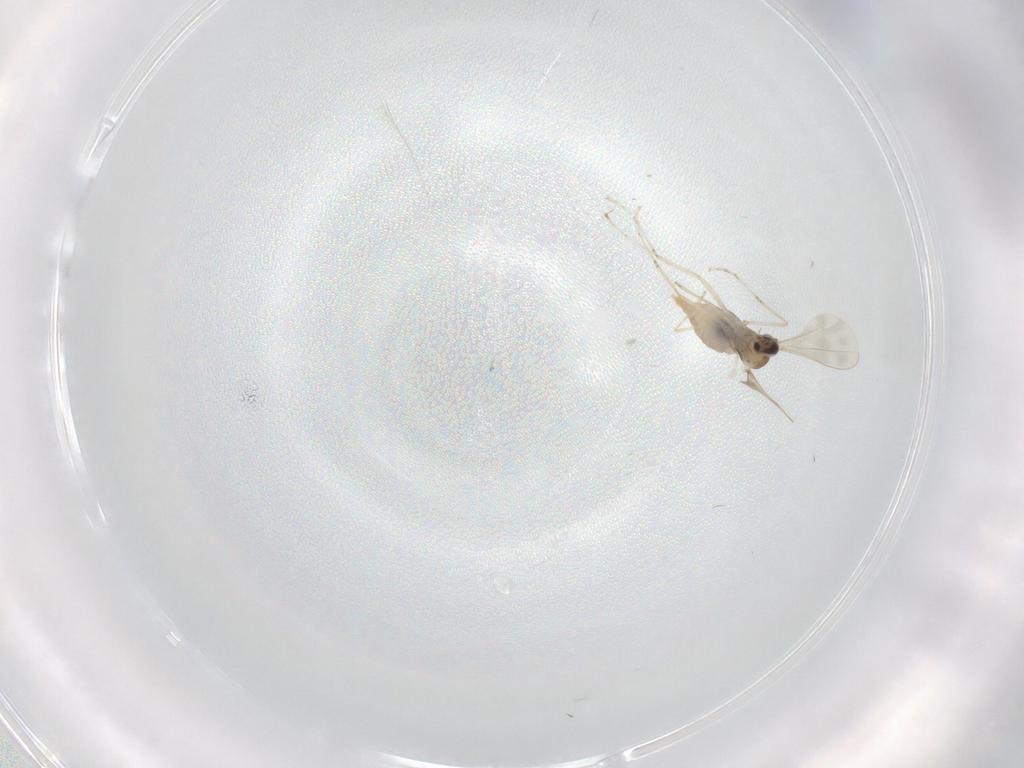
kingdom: Animalia
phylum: Arthropoda
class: Insecta
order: Diptera
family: Cecidomyiidae
